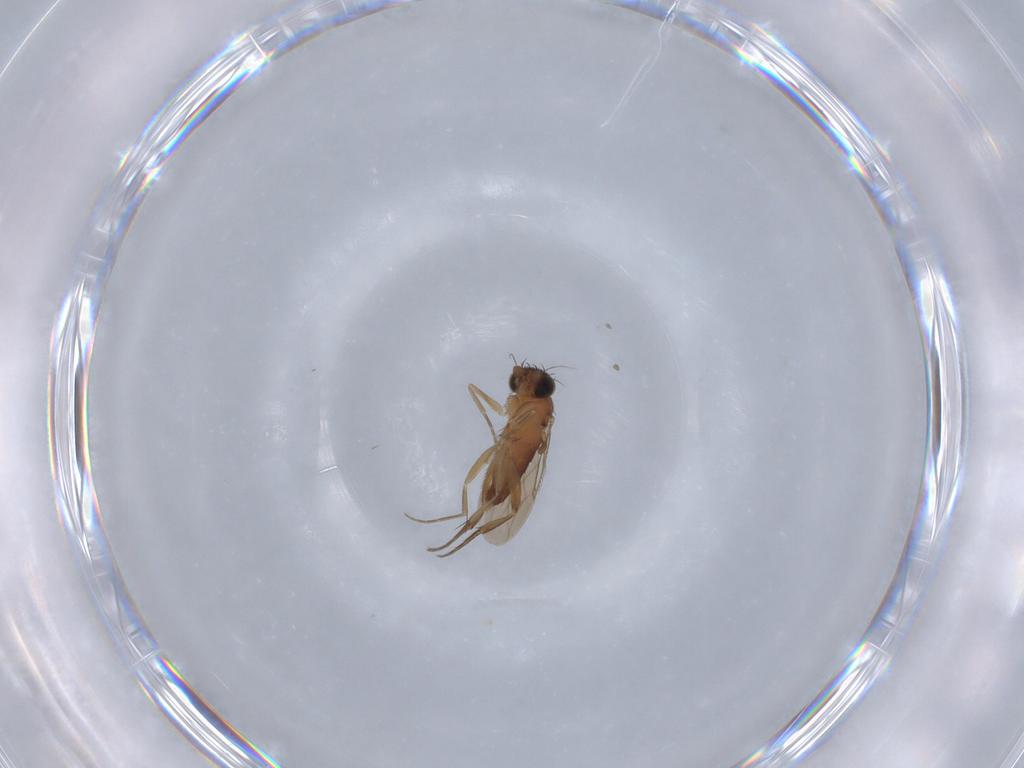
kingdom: Animalia
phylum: Arthropoda
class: Insecta
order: Diptera
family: Phoridae
